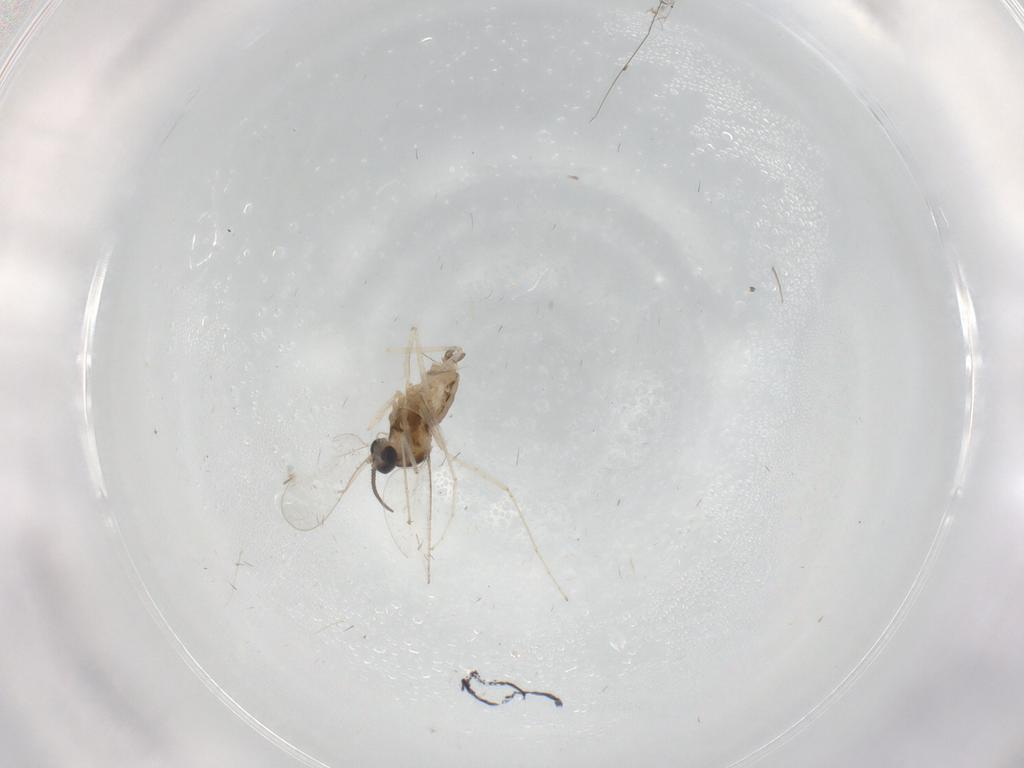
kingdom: Animalia
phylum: Arthropoda
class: Insecta
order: Diptera
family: Cecidomyiidae
